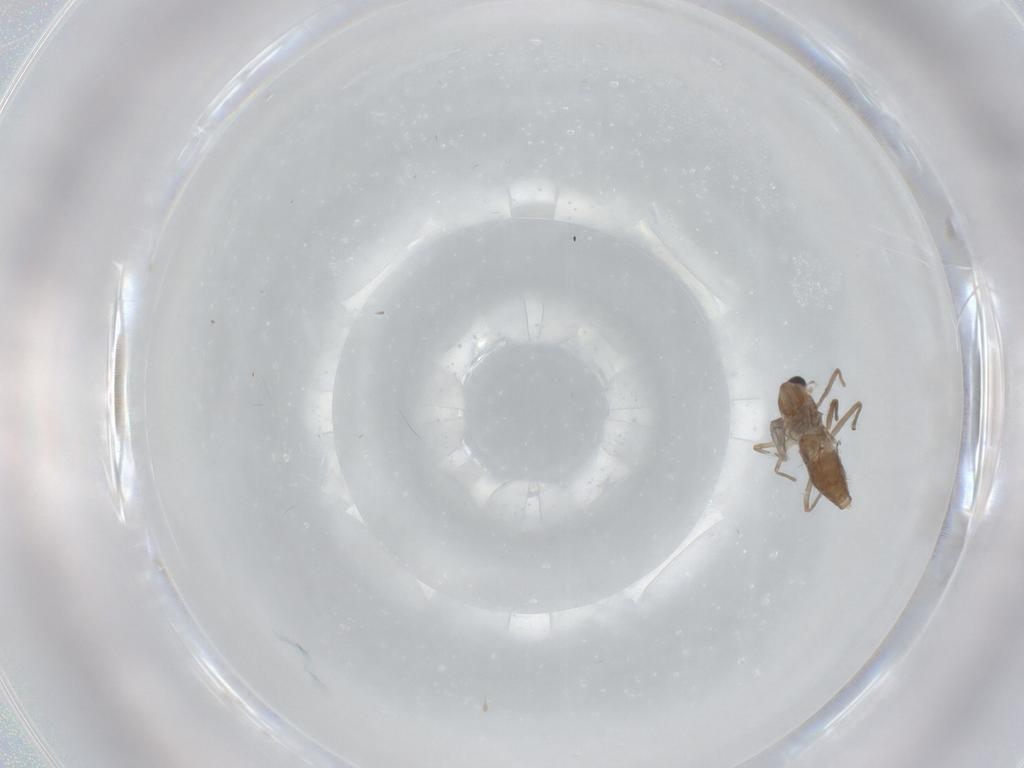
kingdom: Animalia
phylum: Arthropoda
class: Insecta
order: Diptera
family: Chironomidae
